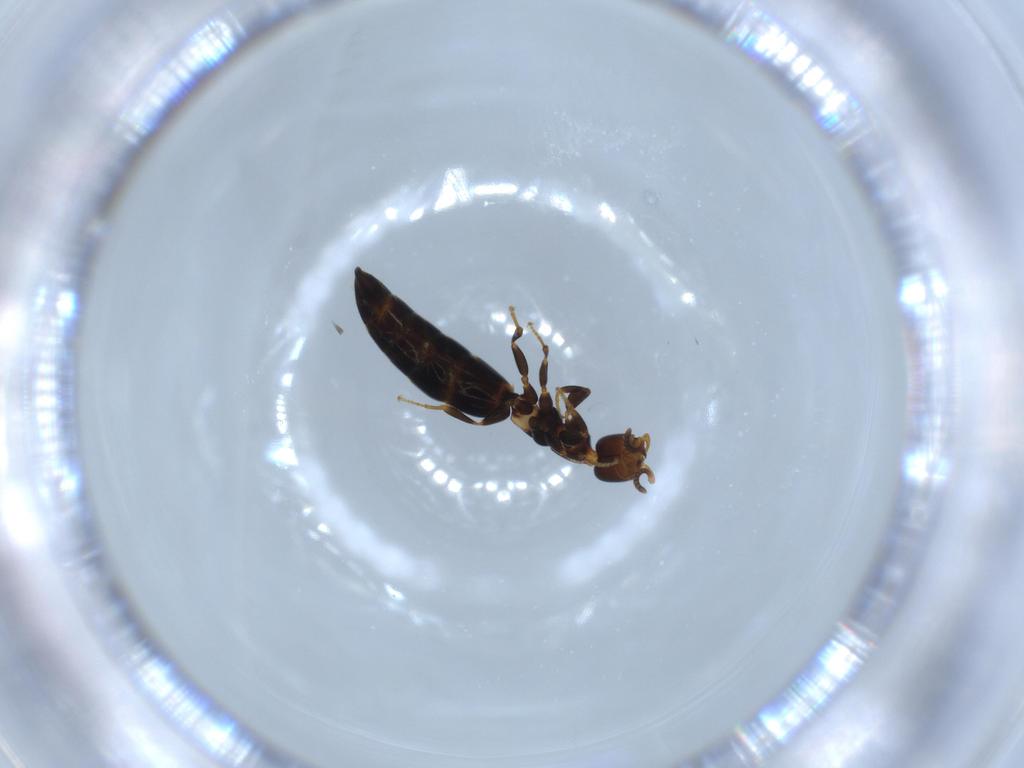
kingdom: Animalia
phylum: Arthropoda
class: Insecta
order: Hymenoptera
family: Bethylidae
